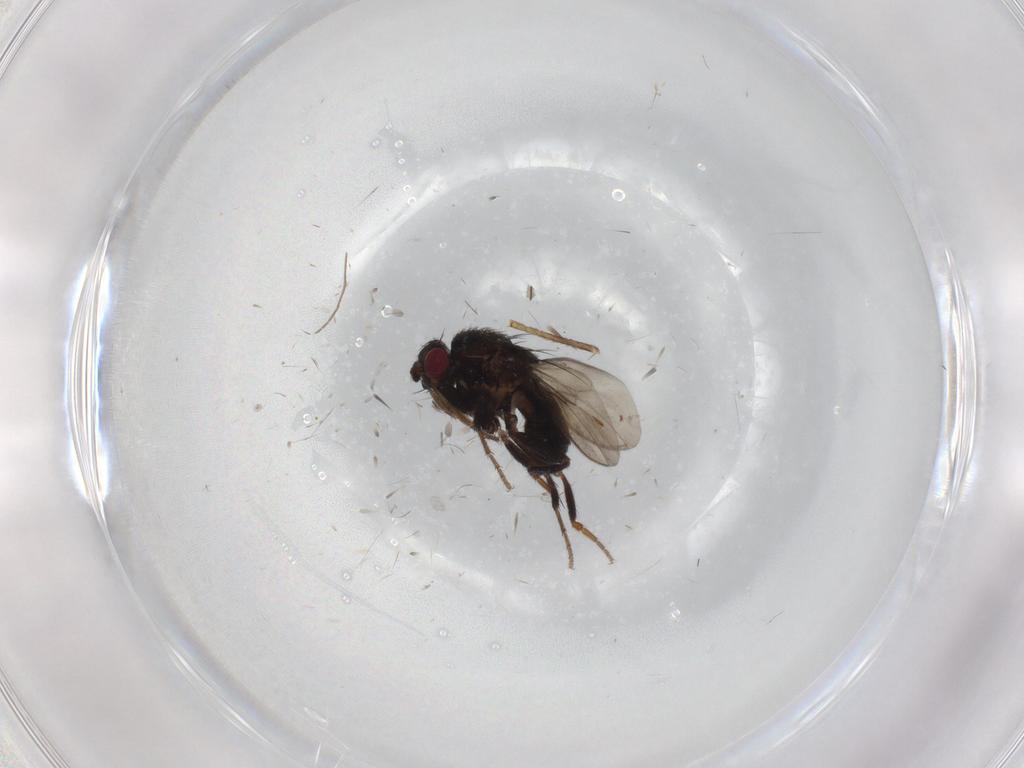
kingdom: Animalia
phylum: Arthropoda
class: Insecta
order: Diptera
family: Sphaeroceridae
